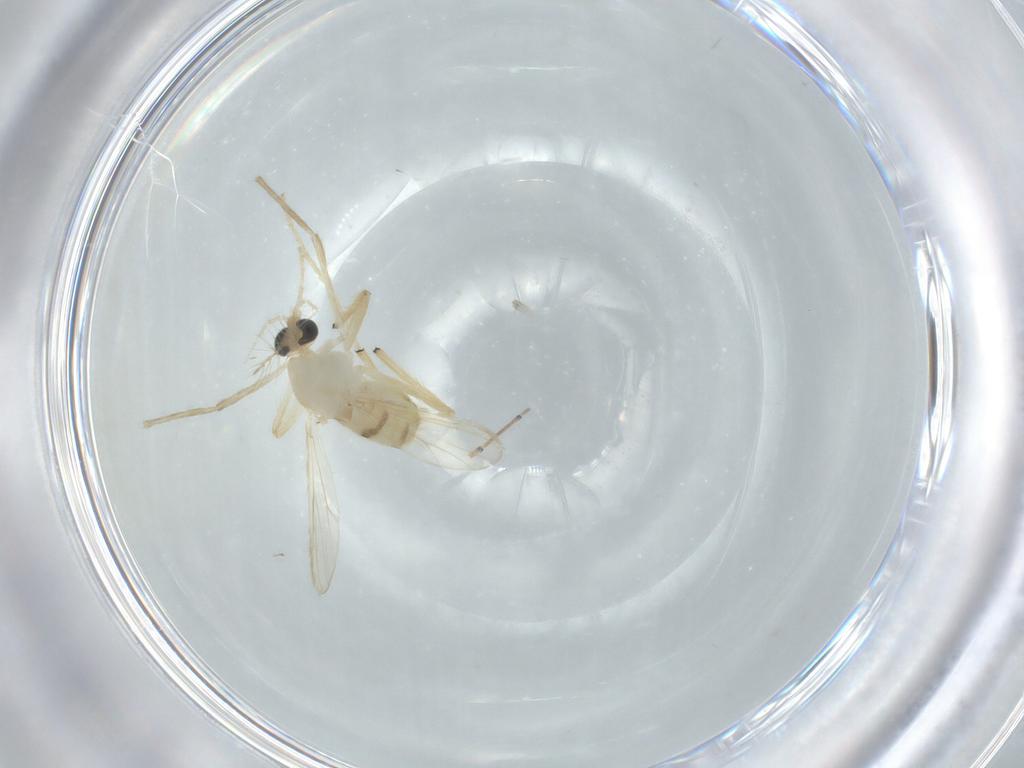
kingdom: Animalia
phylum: Arthropoda
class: Insecta
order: Diptera
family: Chironomidae
